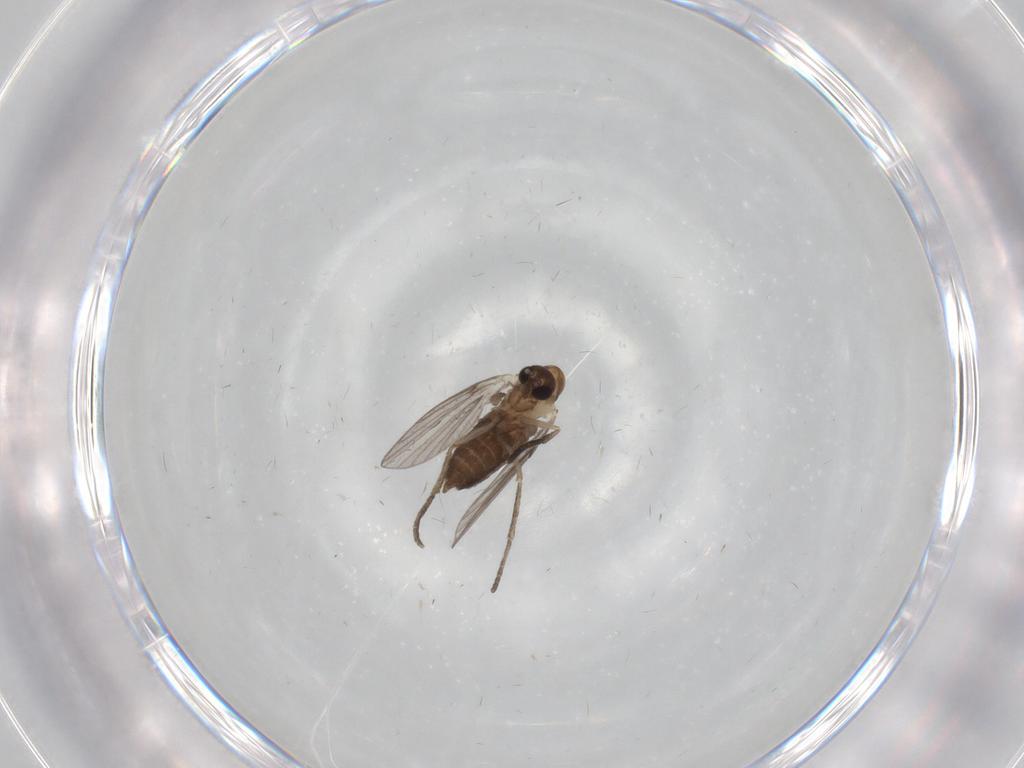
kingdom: Animalia
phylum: Arthropoda
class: Insecta
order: Diptera
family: Psychodidae
